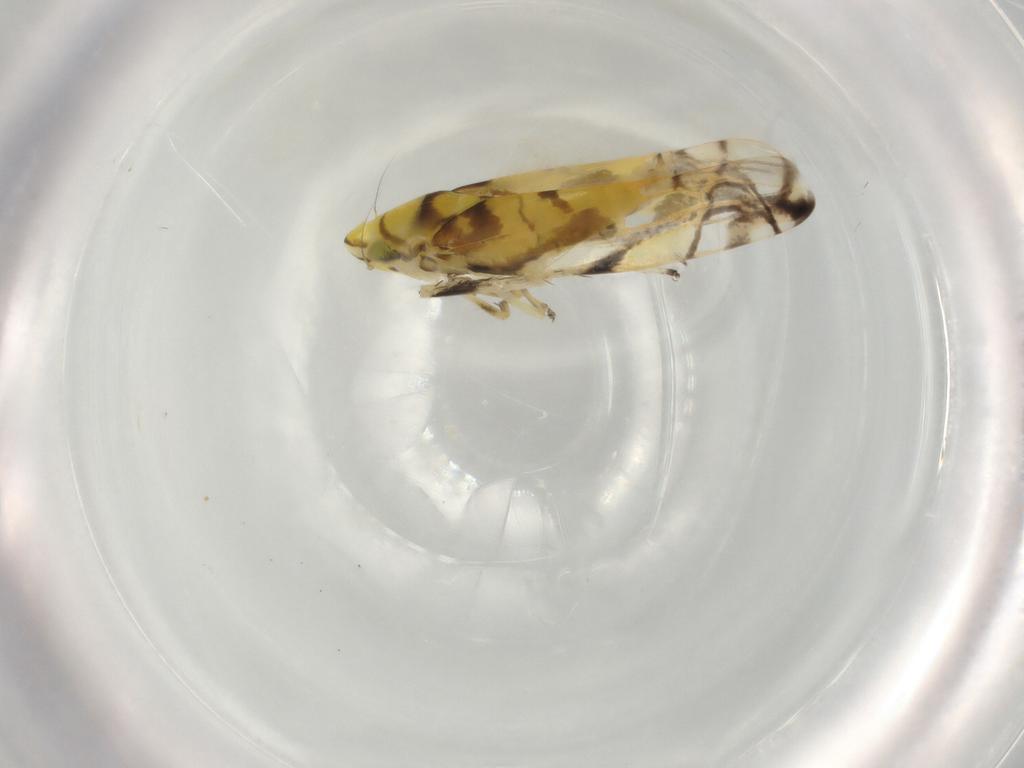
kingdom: Animalia
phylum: Arthropoda
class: Insecta
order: Hemiptera
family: Cicadellidae
